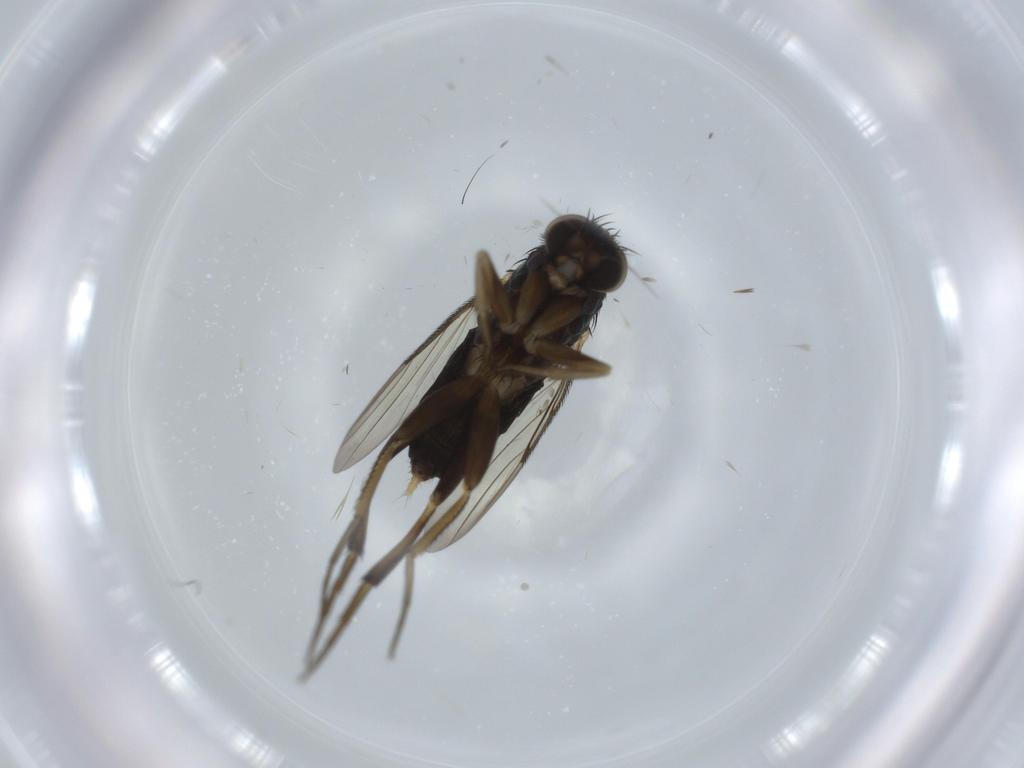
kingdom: Animalia
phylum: Arthropoda
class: Insecta
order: Diptera
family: Phoridae
